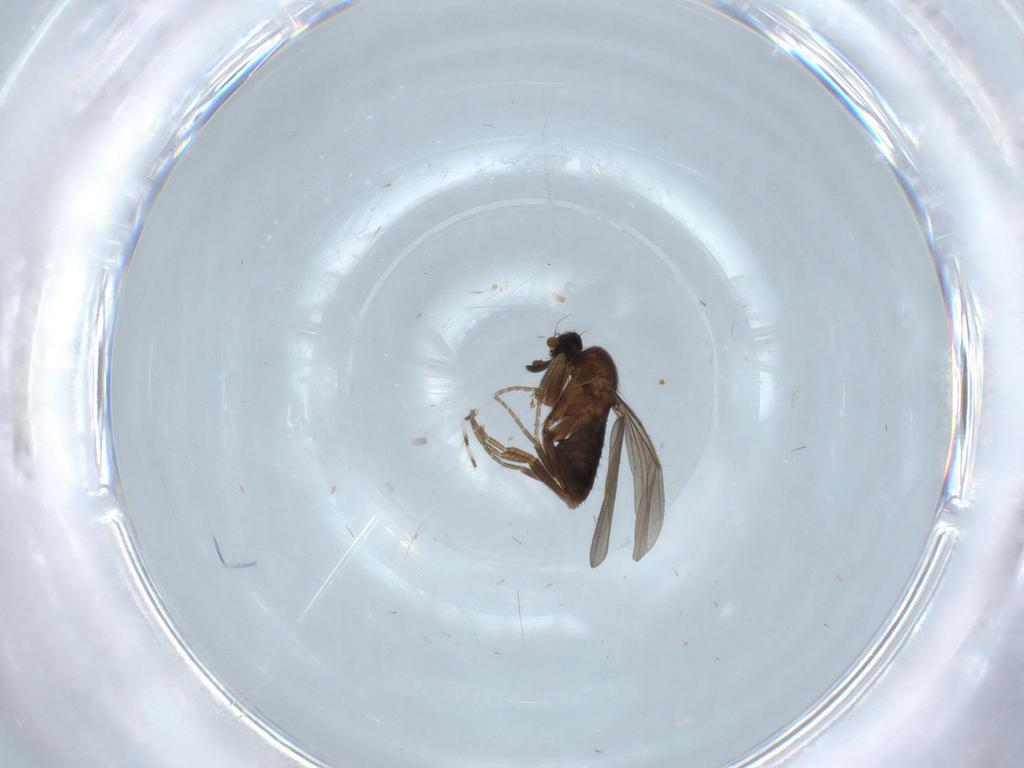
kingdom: Animalia
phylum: Arthropoda
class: Insecta
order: Diptera
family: Phoridae
